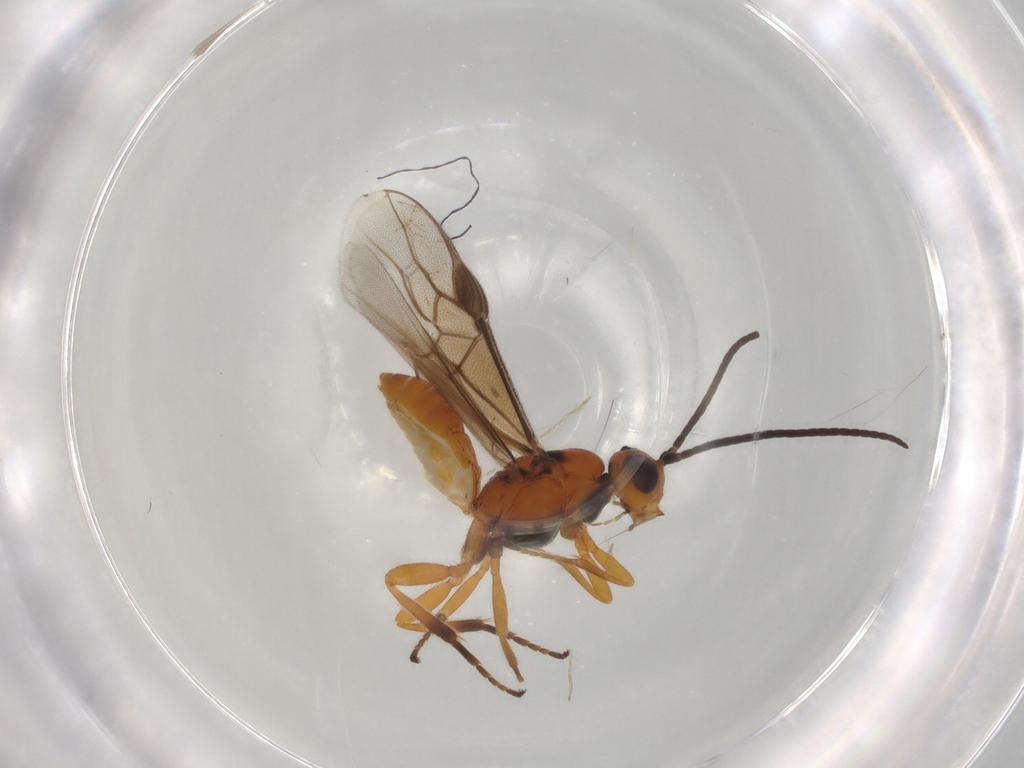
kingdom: Animalia
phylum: Arthropoda
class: Insecta
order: Hymenoptera
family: Braconidae
